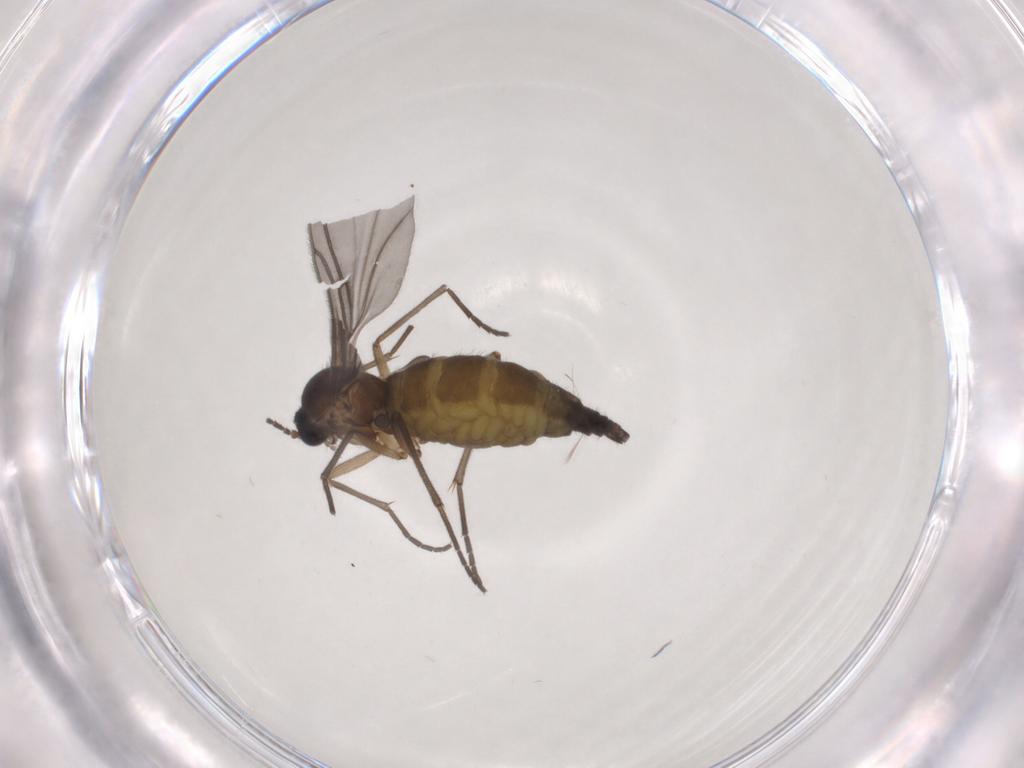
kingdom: Animalia
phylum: Arthropoda
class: Insecta
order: Diptera
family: Sciaridae
